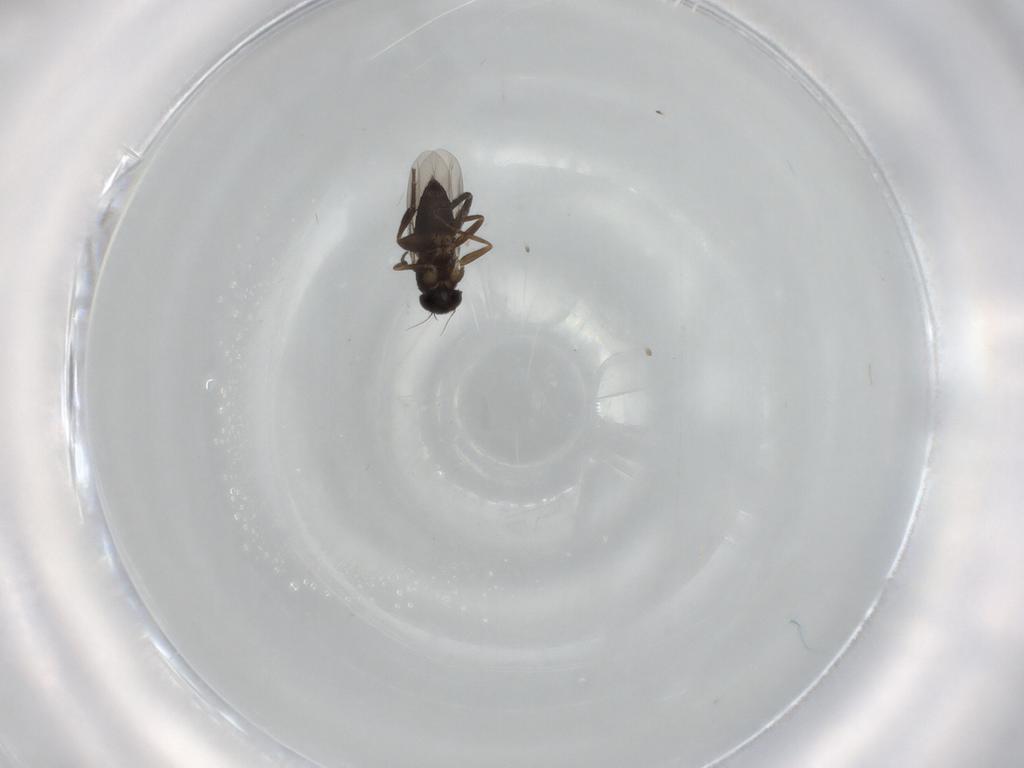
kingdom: Animalia
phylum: Arthropoda
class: Insecta
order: Diptera
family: Cecidomyiidae
